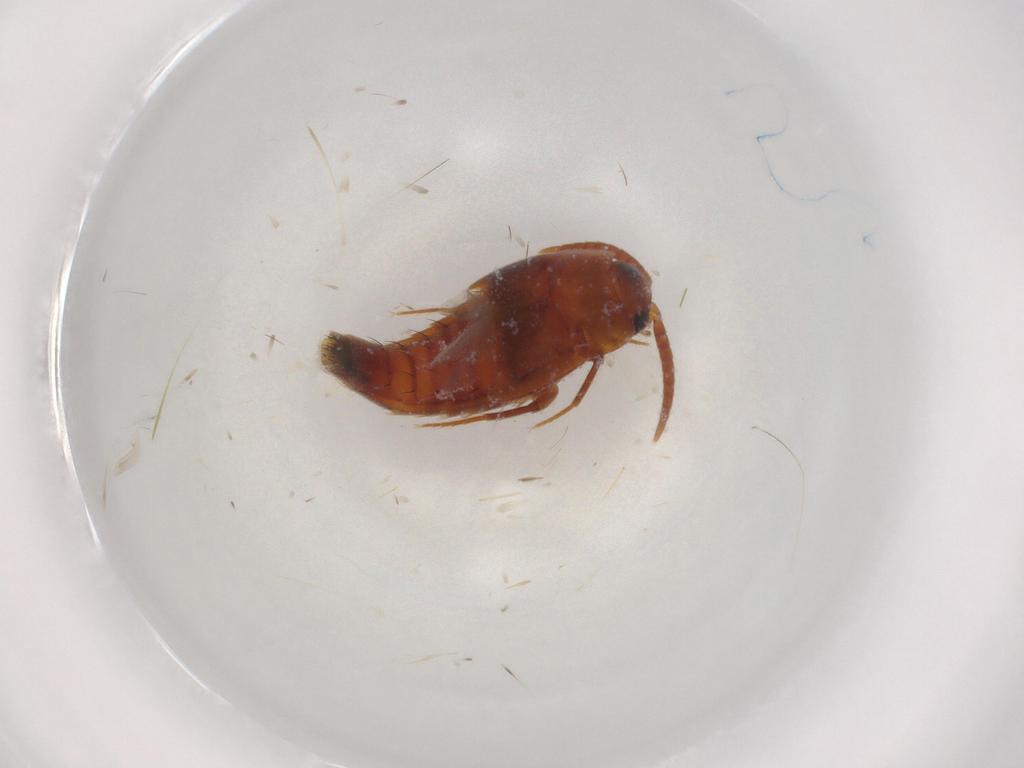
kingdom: Animalia
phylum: Arthropoda
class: Insecta
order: Coleoptera
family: Staphylinidae
